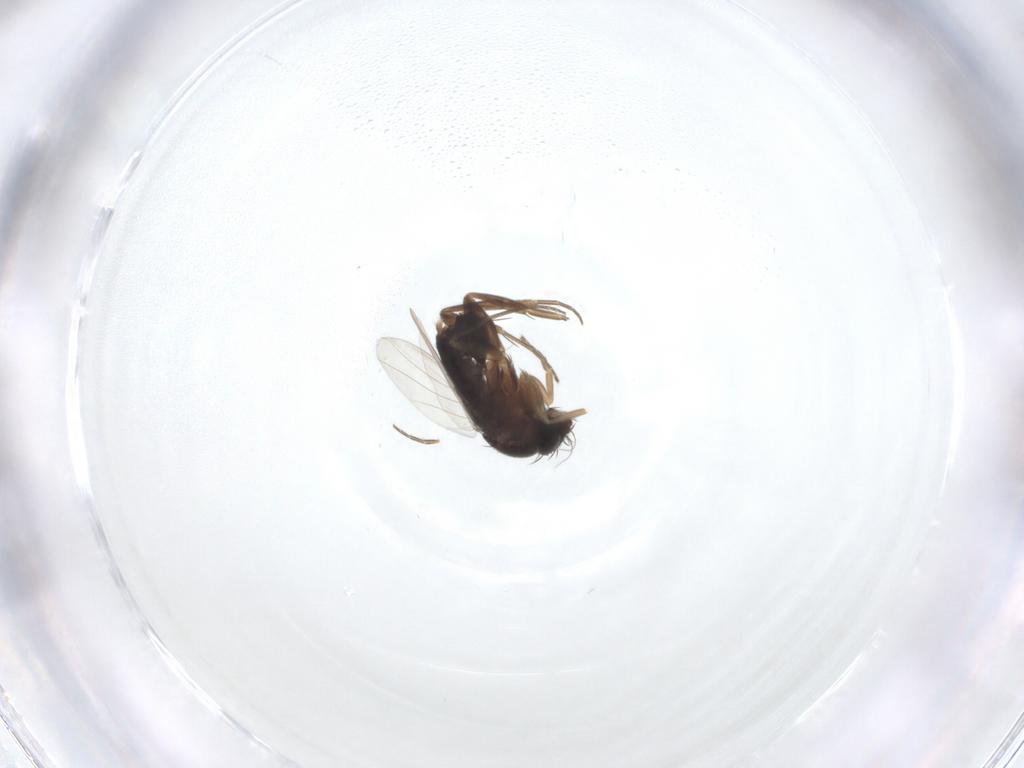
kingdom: Animalia
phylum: Arthropoda
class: Insecta
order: Diptera
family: Phoridae
